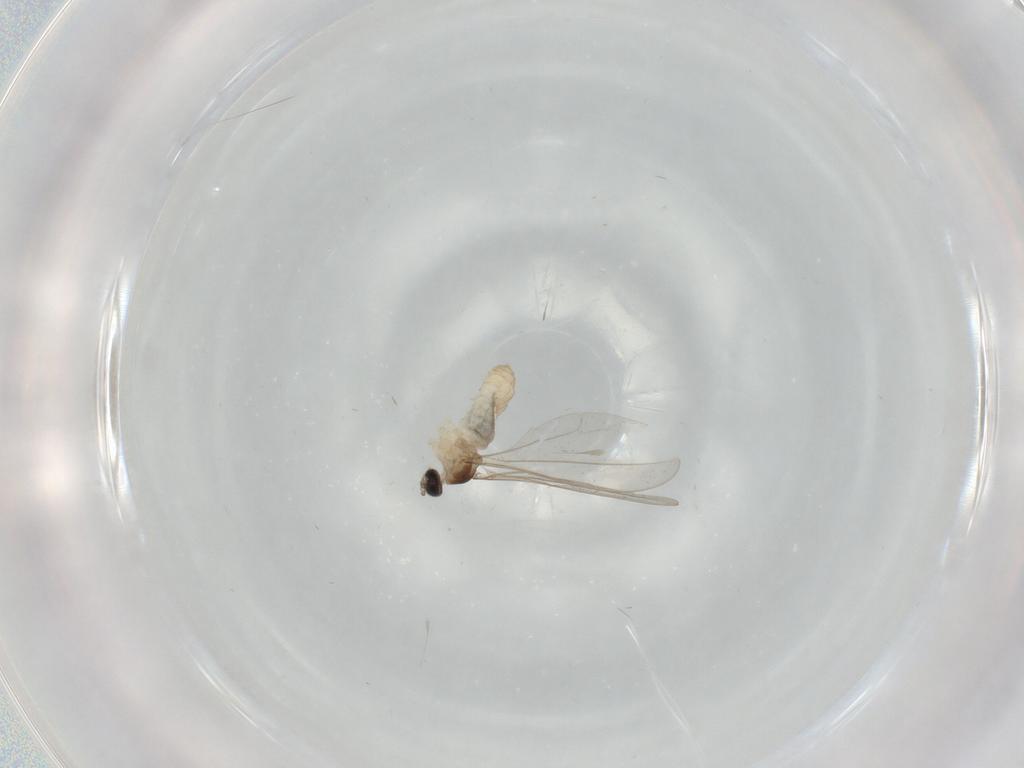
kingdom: Animalia
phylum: Arthropoda
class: Insecta
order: Diptera
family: Cecidomyiidae
